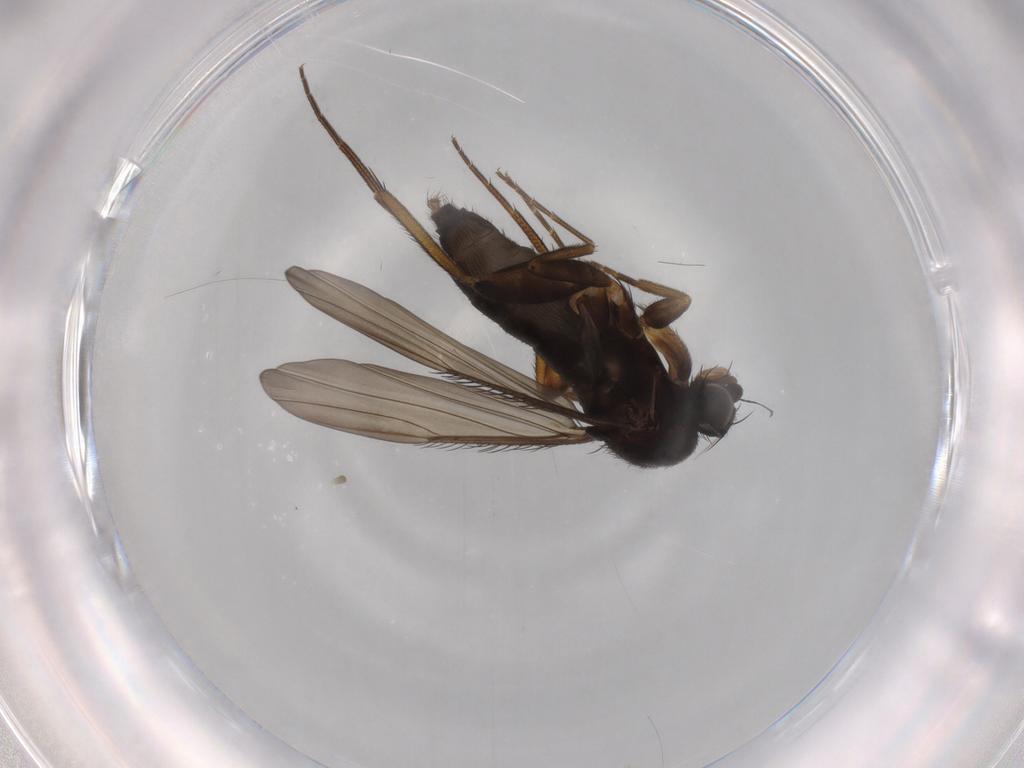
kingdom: Animalia
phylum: Arthropoda
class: Insecta
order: Diptera
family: Phoridae
